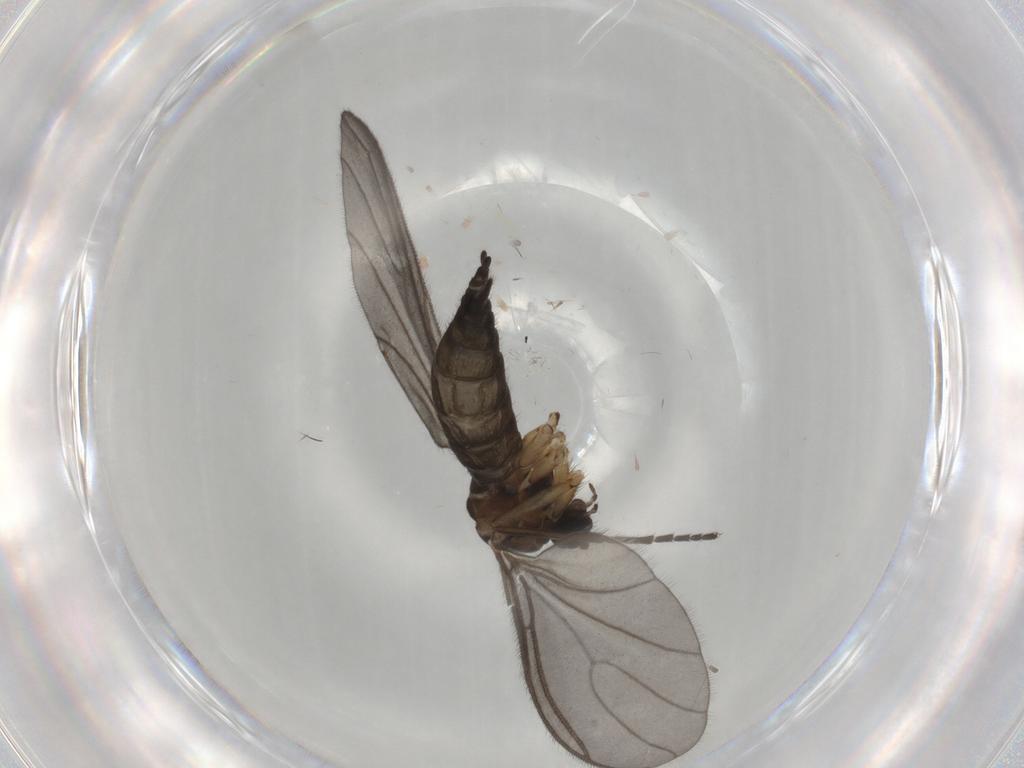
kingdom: Animalia
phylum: Arthropoda
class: Insecta
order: Diptera
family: Sciaridae
